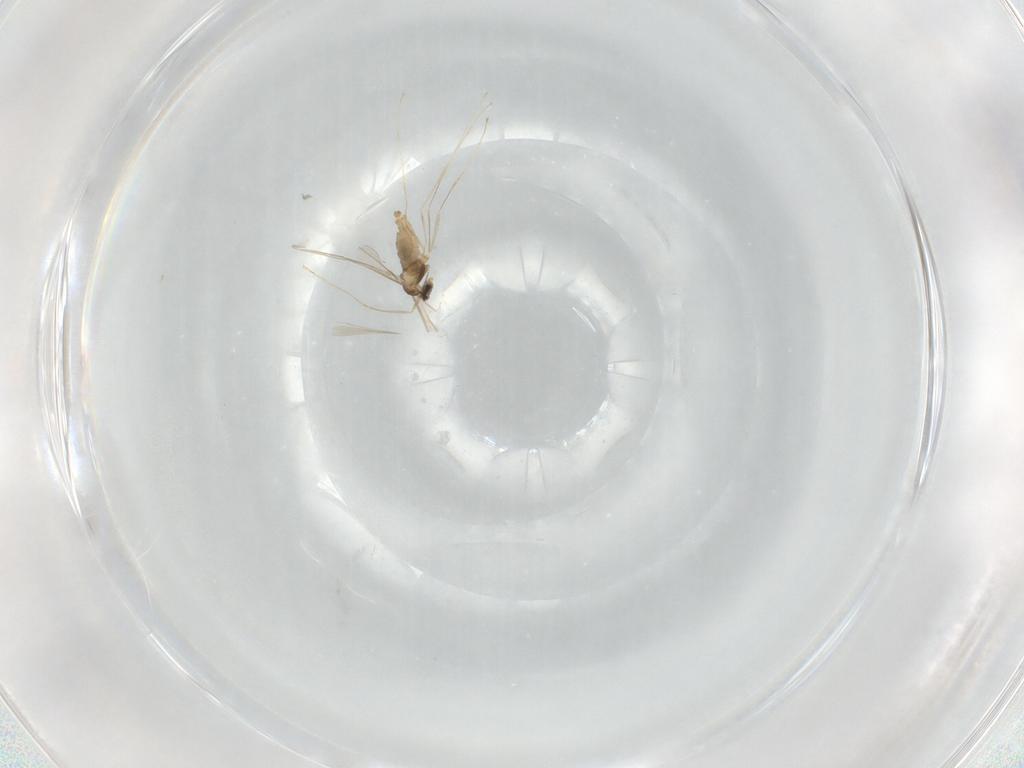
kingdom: Animalia
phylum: Arthropoda
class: Insecta
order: Diptera
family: Cecidomyiidae
